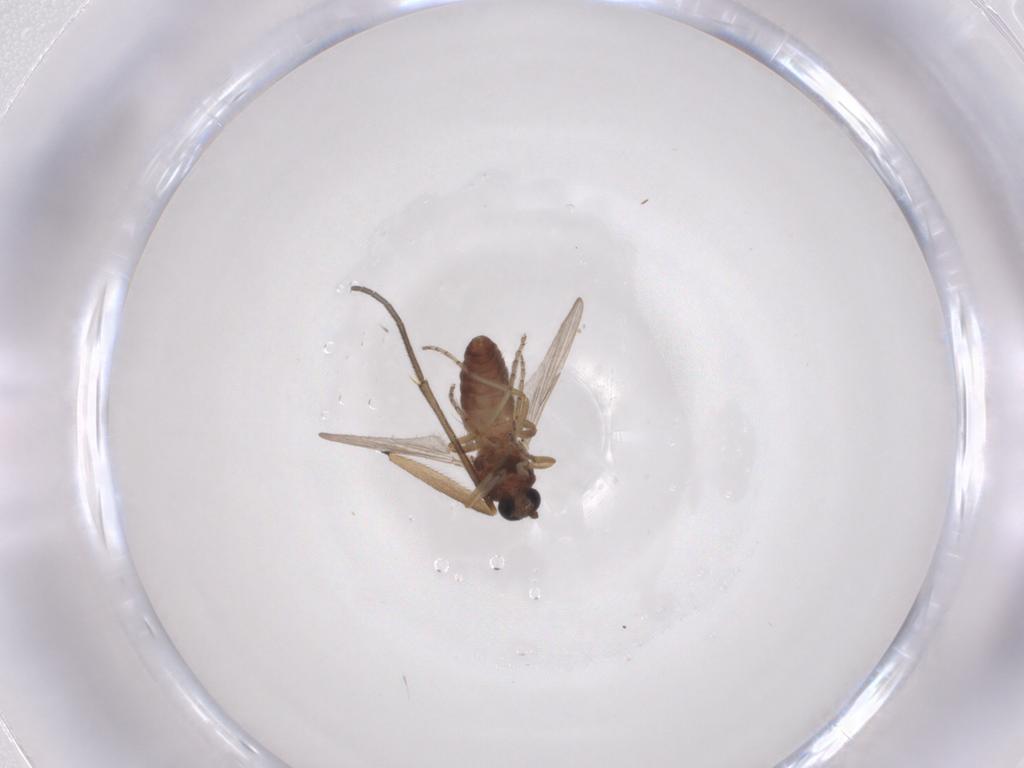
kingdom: Animalia
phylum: Arthropoda
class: Insecta
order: Diptera
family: Ceratopogonidae
